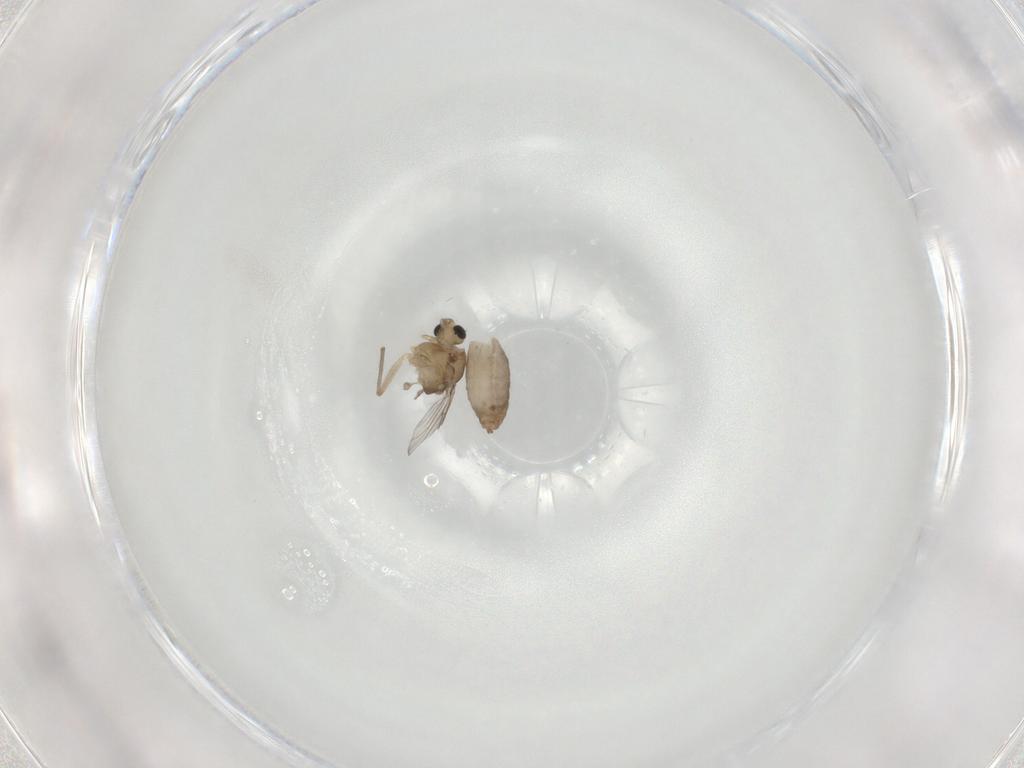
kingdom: Animalia
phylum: Arthropoda
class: Insecta
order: Diptera
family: Chironomidae
